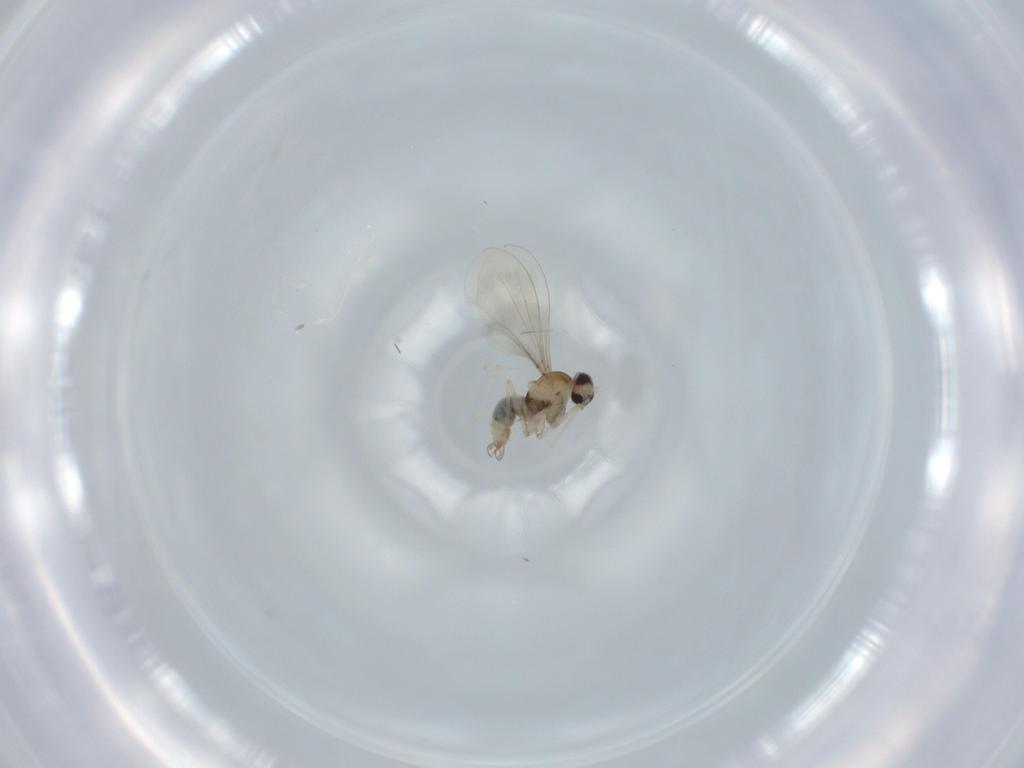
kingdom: Animalia
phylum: Arthropoda
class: Insecta
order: Diptera
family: Cecidomyiidae
